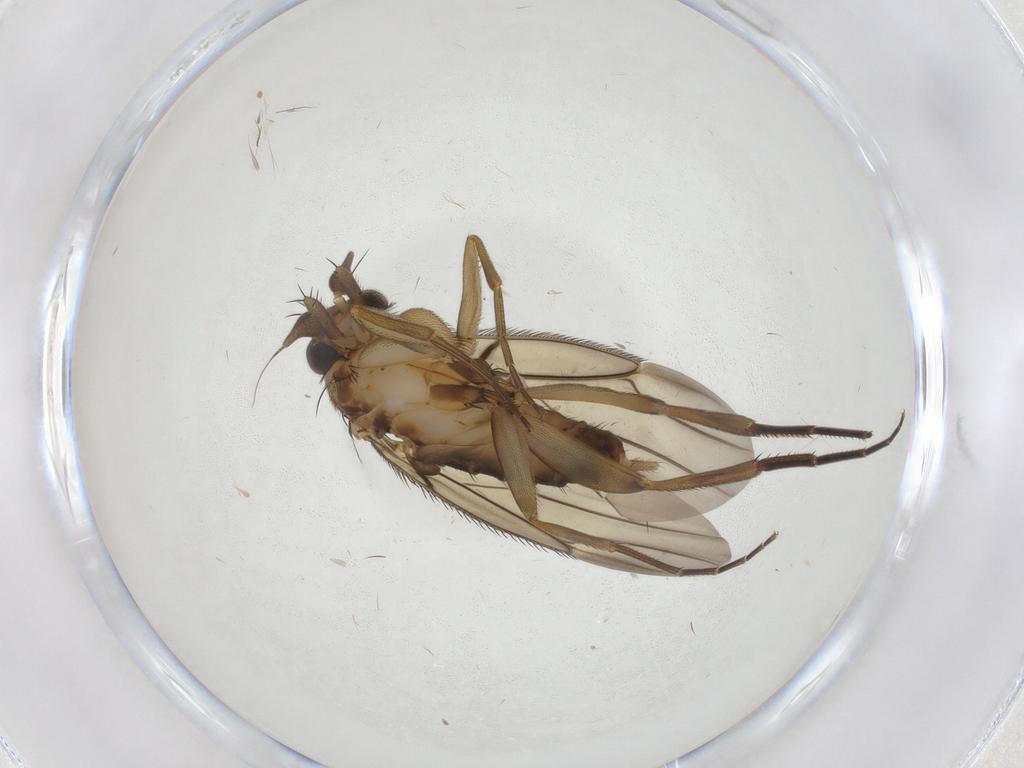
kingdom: Animalia
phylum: Arthropoda
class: Insecta
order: Diptera
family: Phoridae
